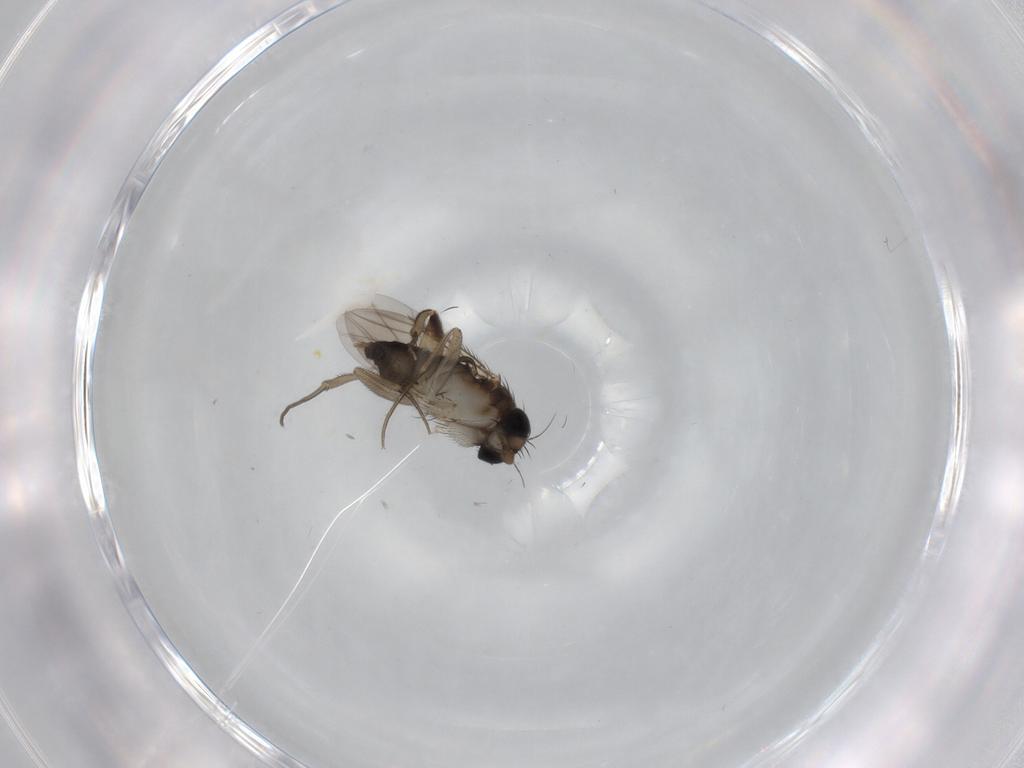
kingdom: Animalia
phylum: Arthropoda
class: Insecta
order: Diptera
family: Phoridae
